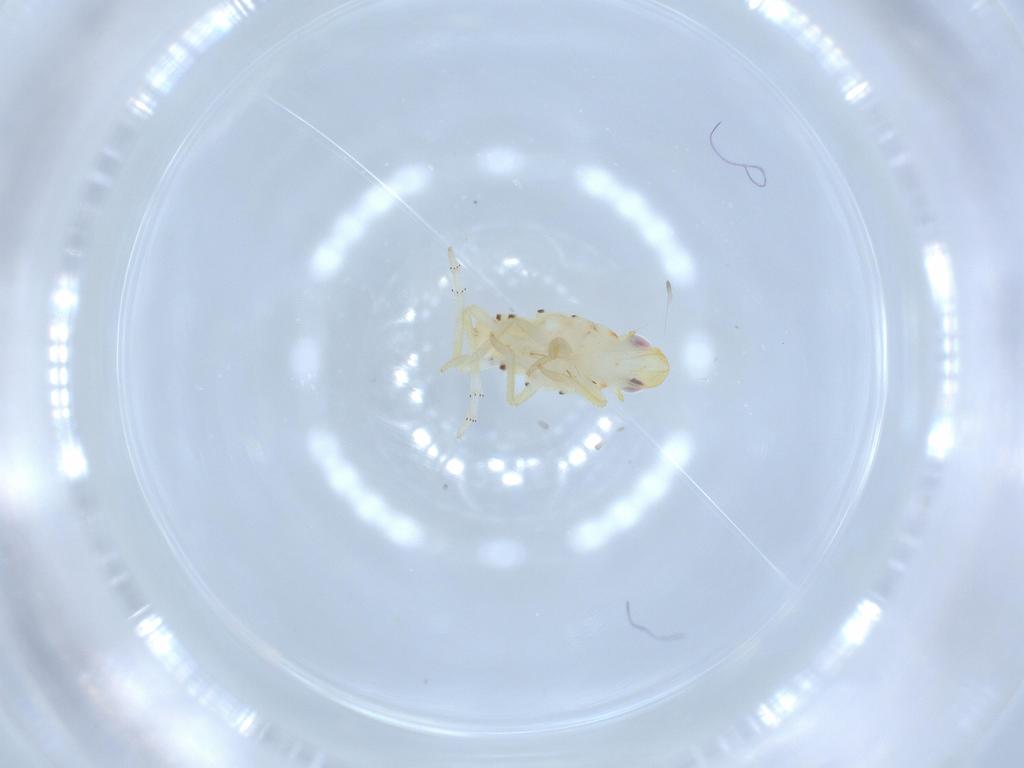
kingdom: Animalia
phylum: Arthropoda
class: Insecta
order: Hemiptera
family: Tropiduchidae
